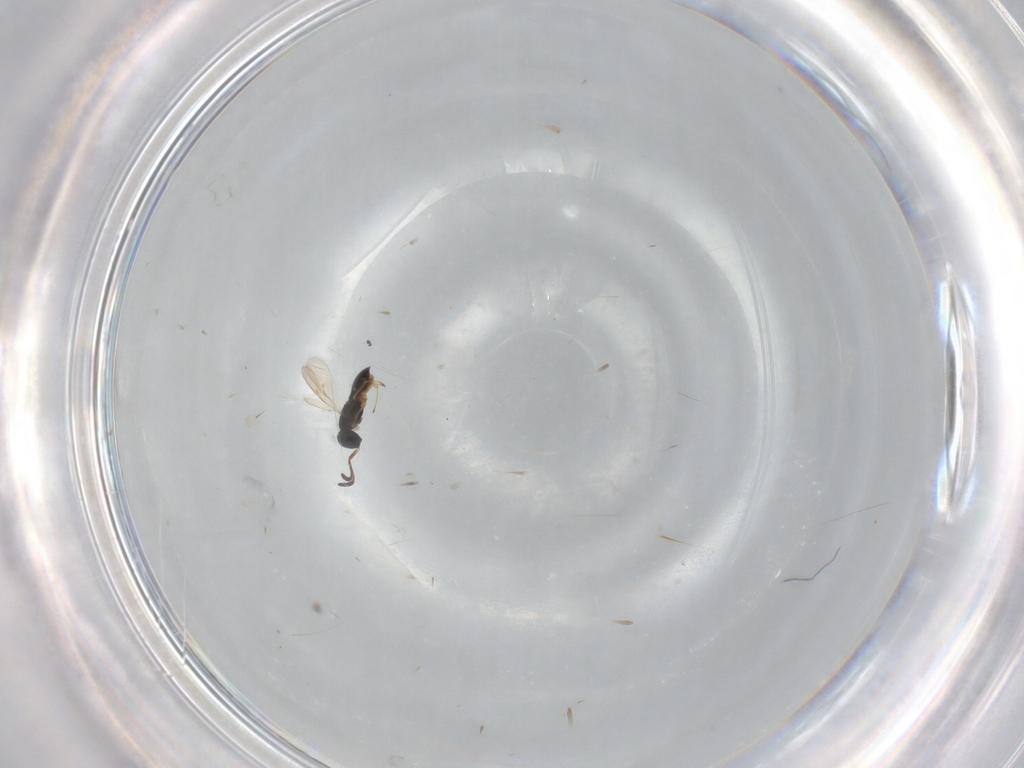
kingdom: Animalia
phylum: Arthropoda
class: Insecta
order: Hymenoptera
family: Scelionidae
